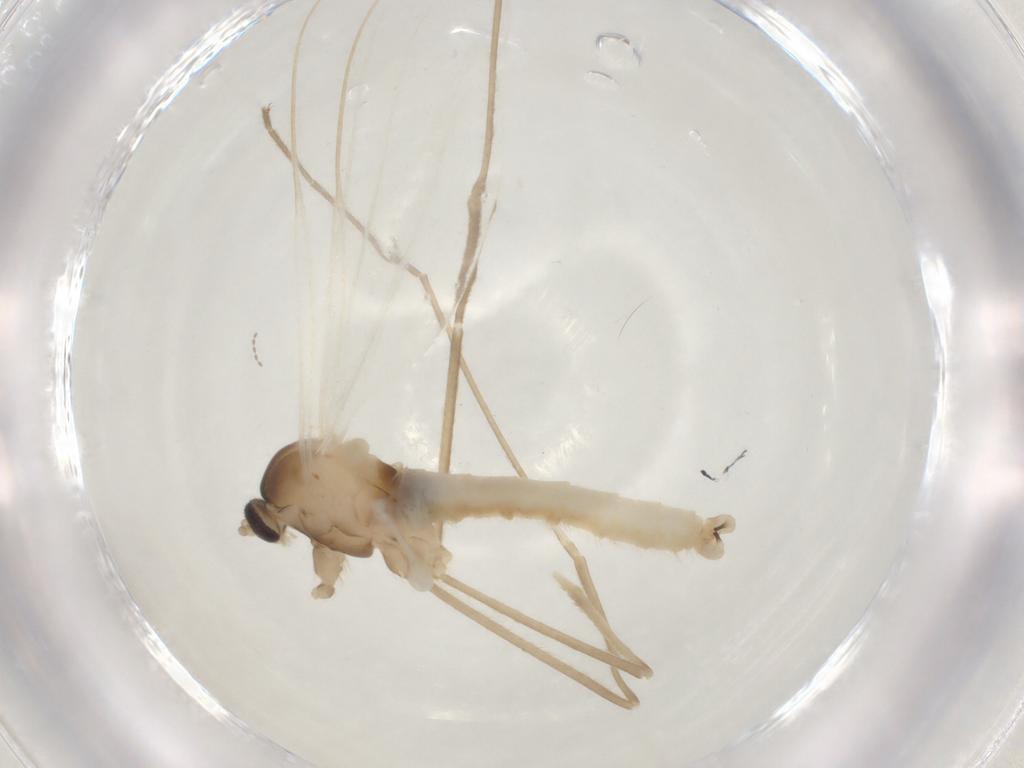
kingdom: Animalia
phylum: Arthropoda
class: Insecta
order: Diptera
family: Cecidomyiidae
